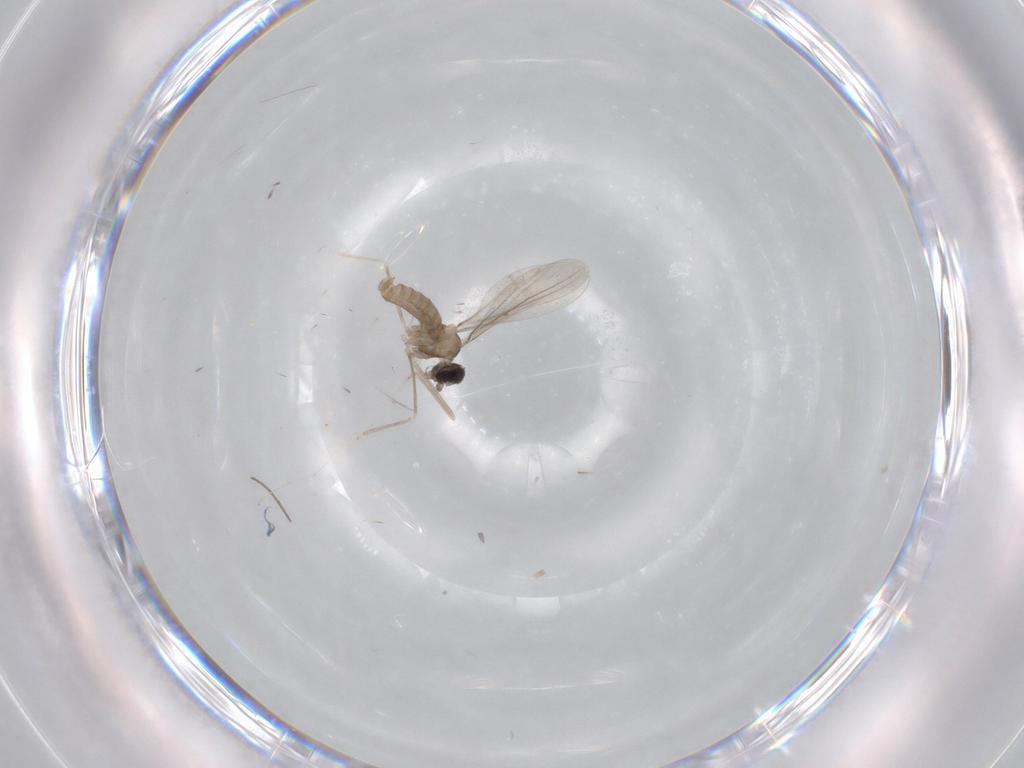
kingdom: Animalia
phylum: Arthropoda
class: Insecta
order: Diptera
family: Cecidomyiidae
